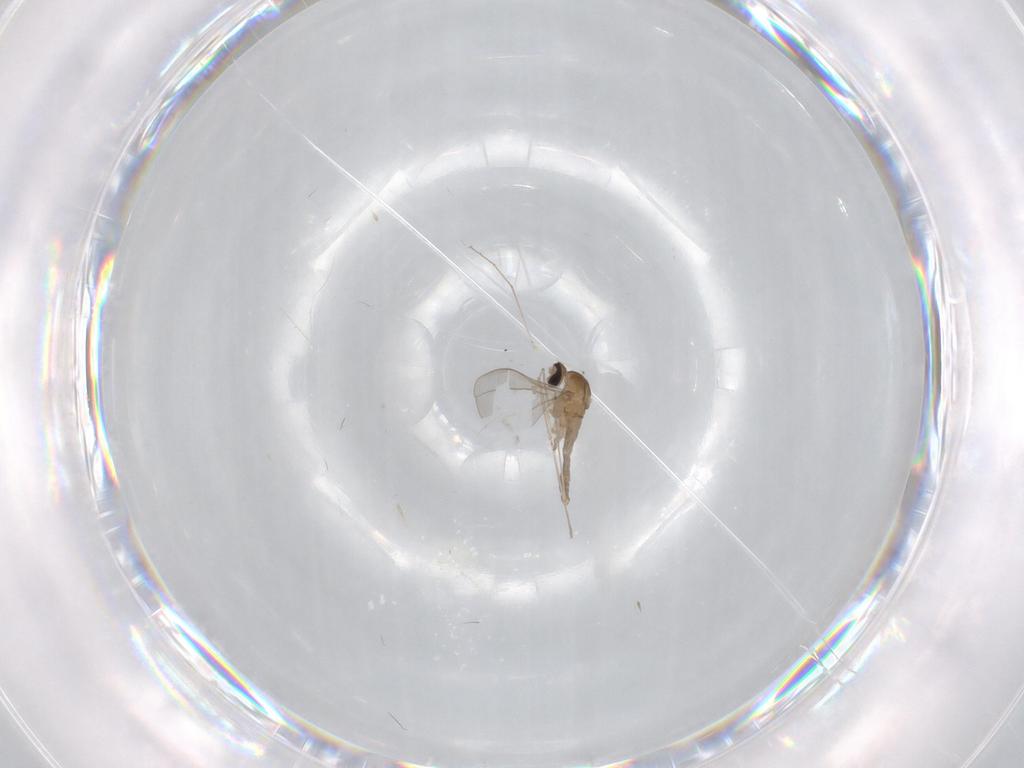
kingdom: Animalia
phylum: Arthropoda
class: Insecta
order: Diptera
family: Cecidomyiidae
